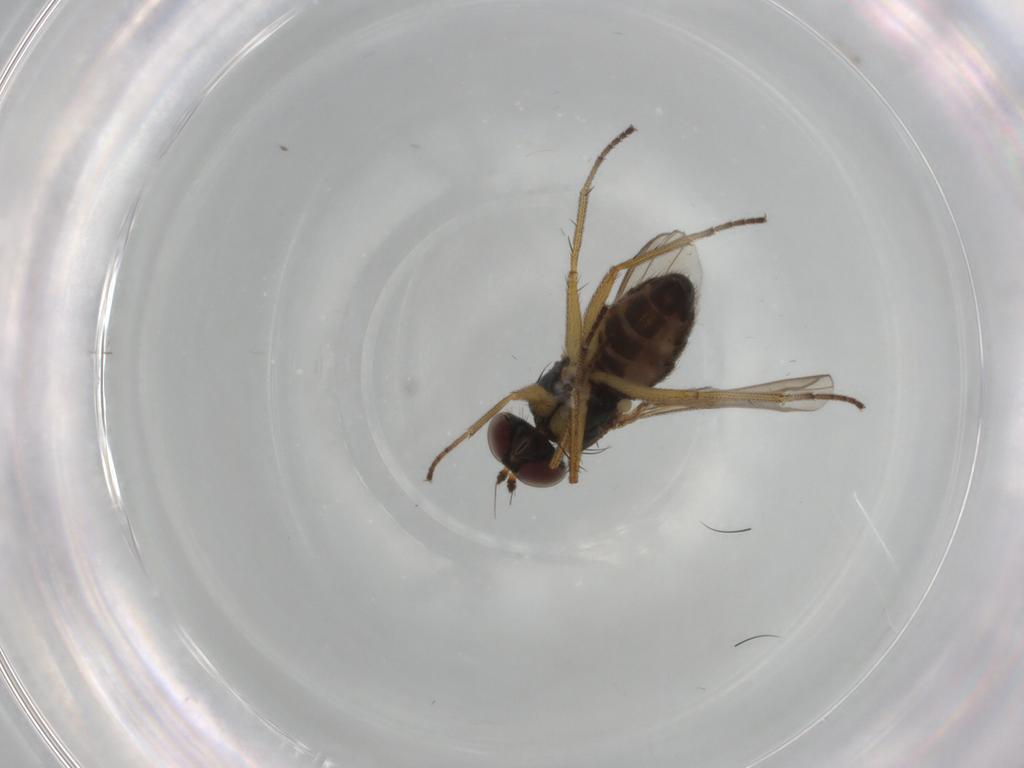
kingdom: Animalia
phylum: Arthropoda
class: Insecta
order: Diptera
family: Dolichopodidae
